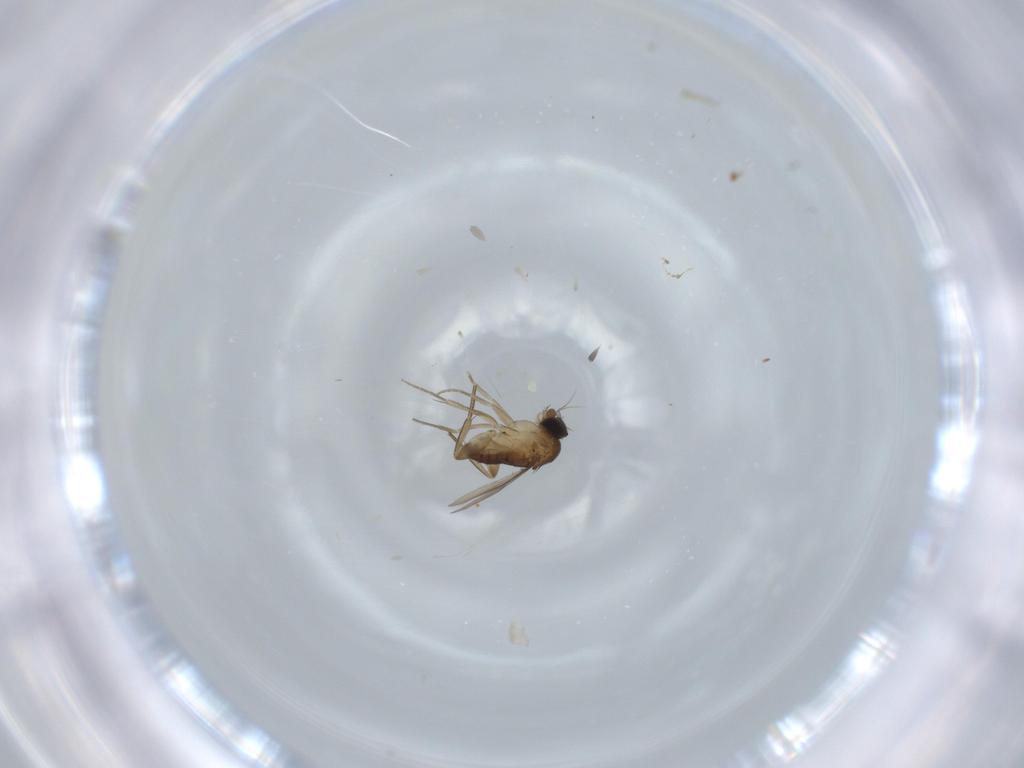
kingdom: Animalia
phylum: Arthropoda
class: Insecta
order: Diptera
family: Phoridae
